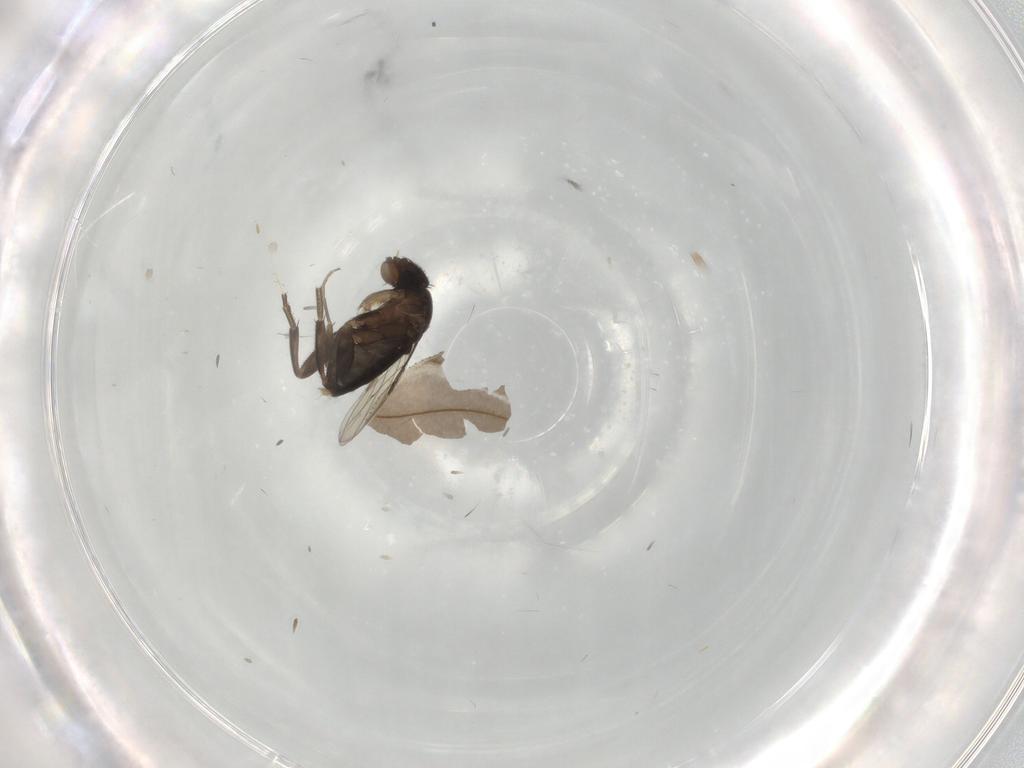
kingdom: Animalia
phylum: Arthropoda
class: Insecta
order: Diptera
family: Phoridae
